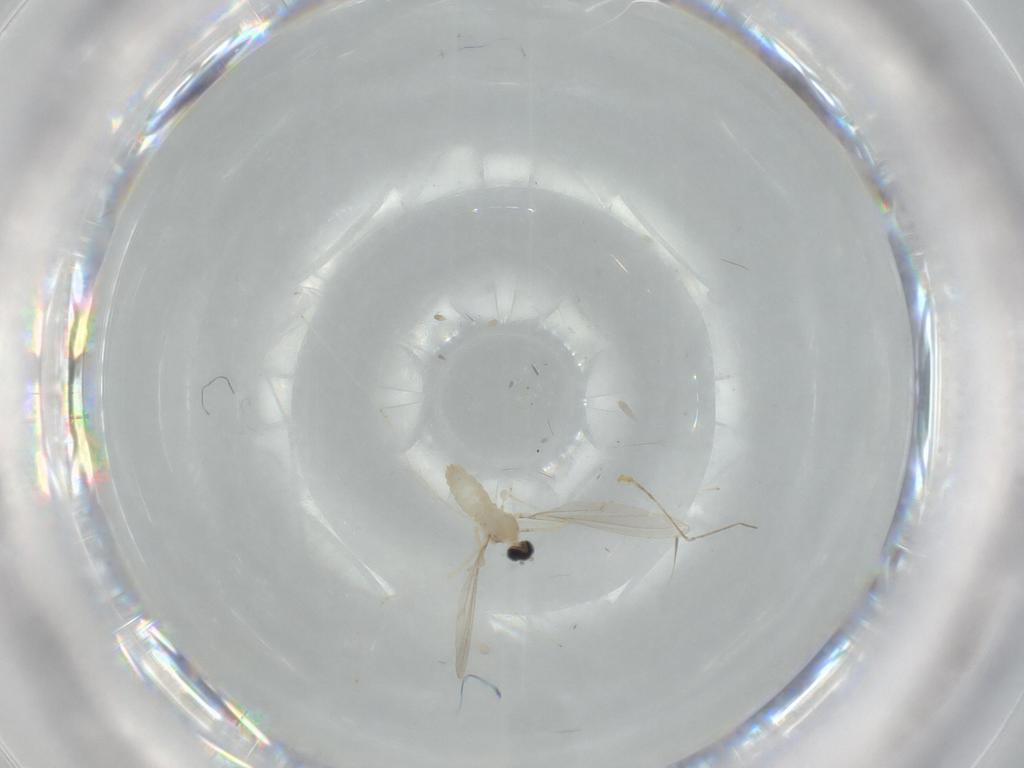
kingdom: Animalia
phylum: Arthropoda
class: Insecta
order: Diptera
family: Cecidomyiidae
